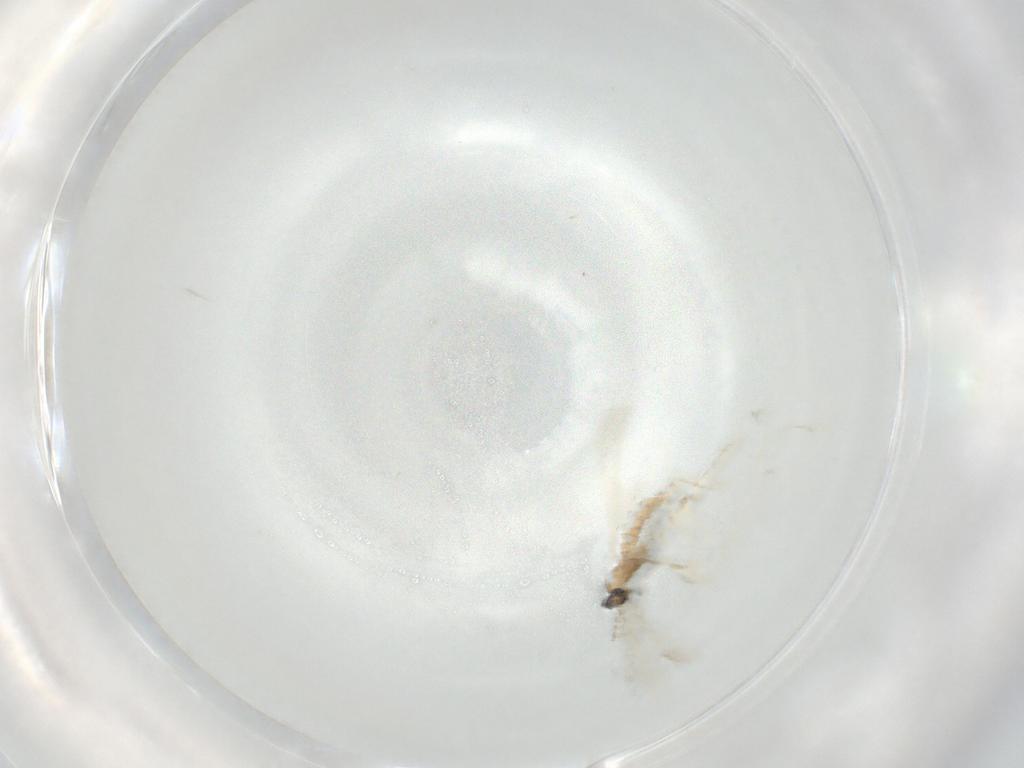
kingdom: Animalia
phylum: Arthropoda
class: Insecta
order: Diptera
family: Cecidomyiidae
